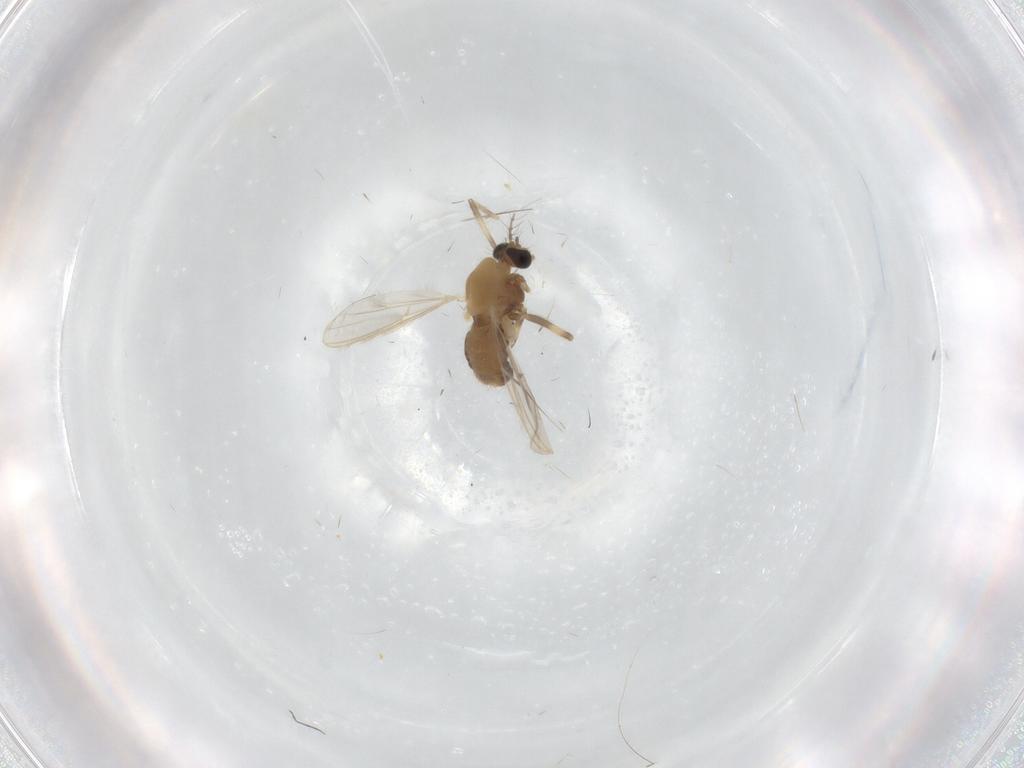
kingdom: Animalia
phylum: Arthropoda
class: Insecta
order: Diptera
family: Chironomidae
